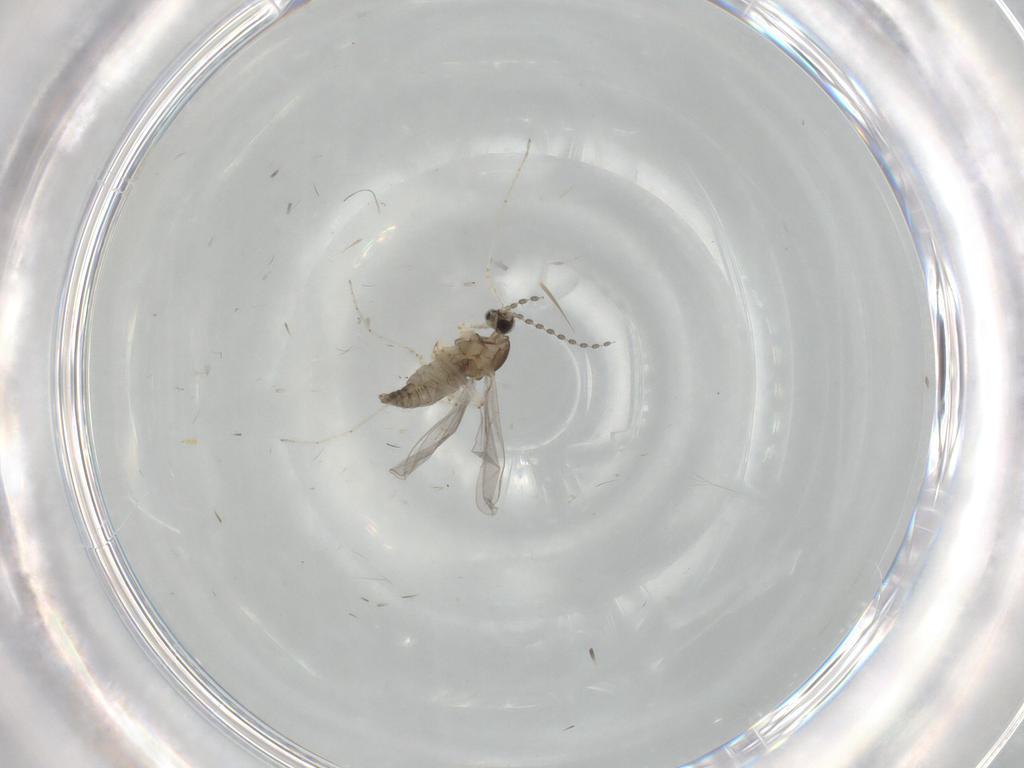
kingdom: Animalia
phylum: Arthropoda
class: Insecta
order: Diptera
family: Cecidomyiidae
